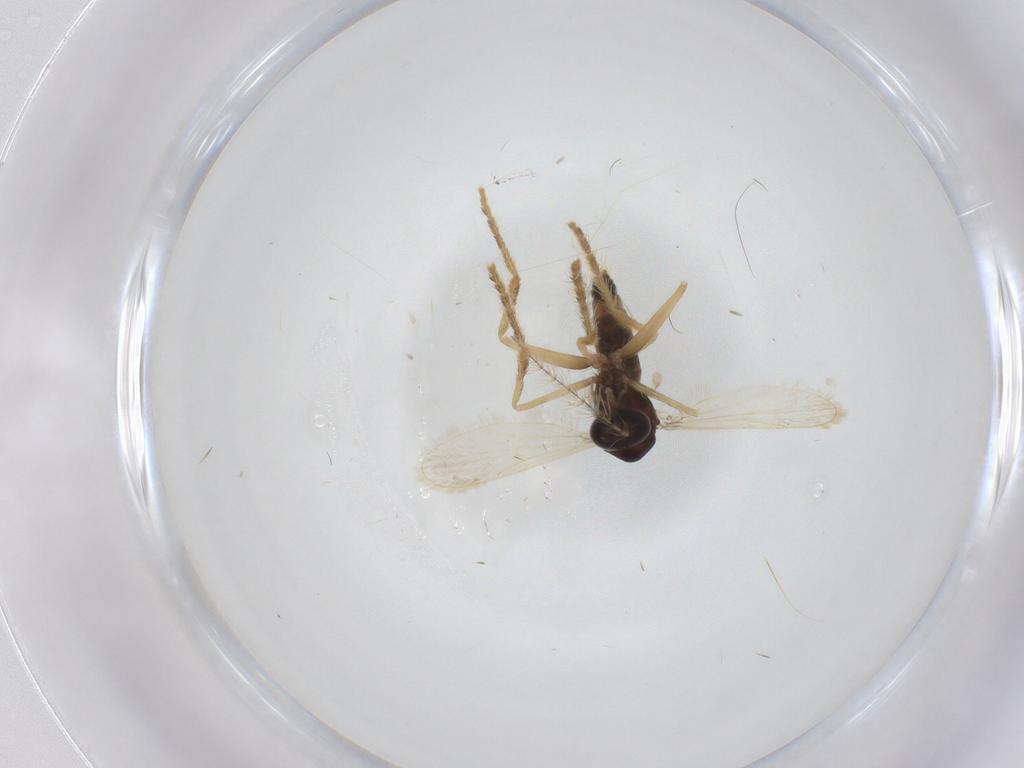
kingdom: Animalia
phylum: Arthropoda
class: Insecta
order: Diptera
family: Corethrellidae
